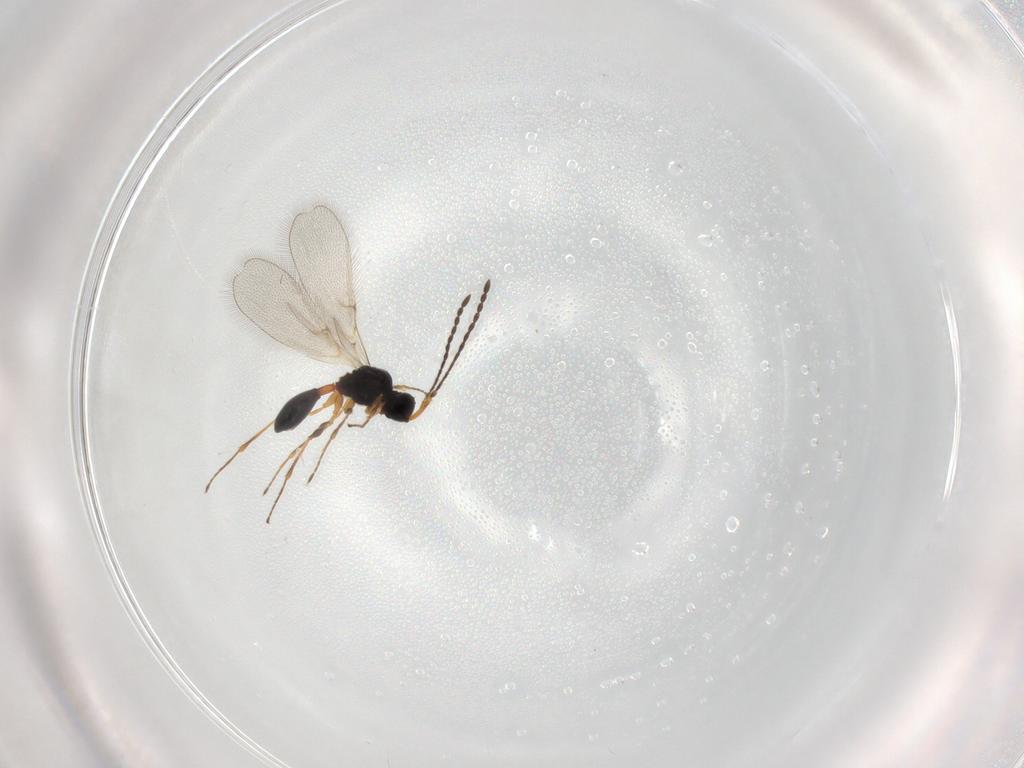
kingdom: Animalia
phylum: Arthropoda
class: Insecta
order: Hymenoptera
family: Diapriidae
